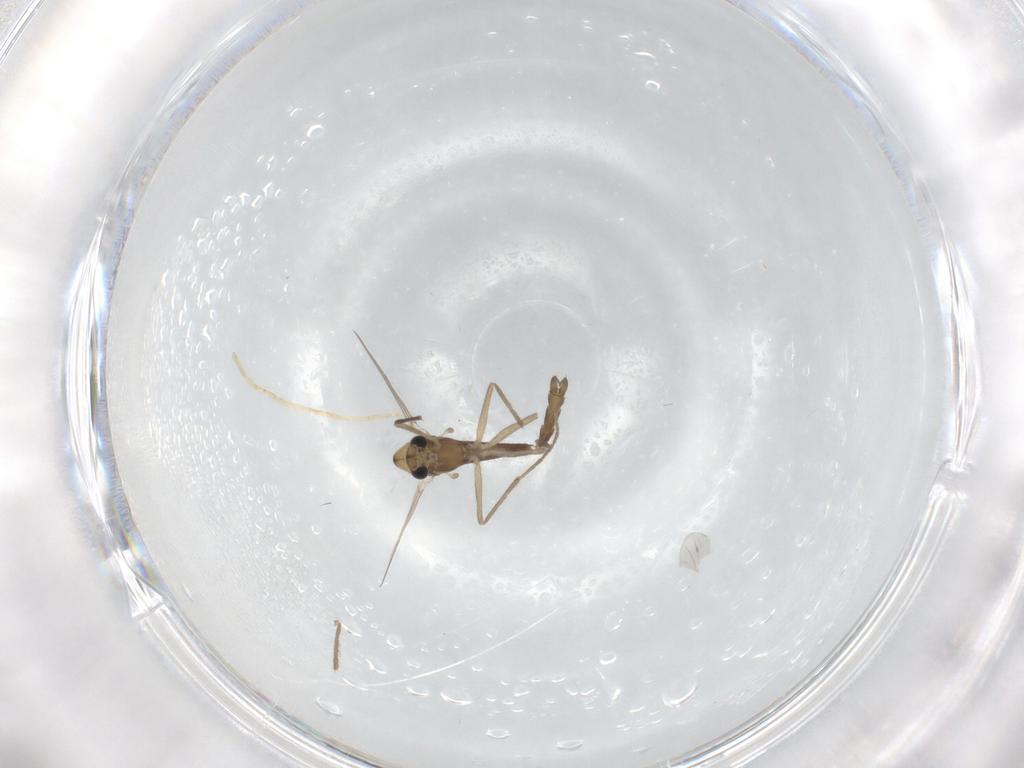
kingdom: Animalia
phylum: Arthropoda
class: Insecta
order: Diptera
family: Chironomidae
